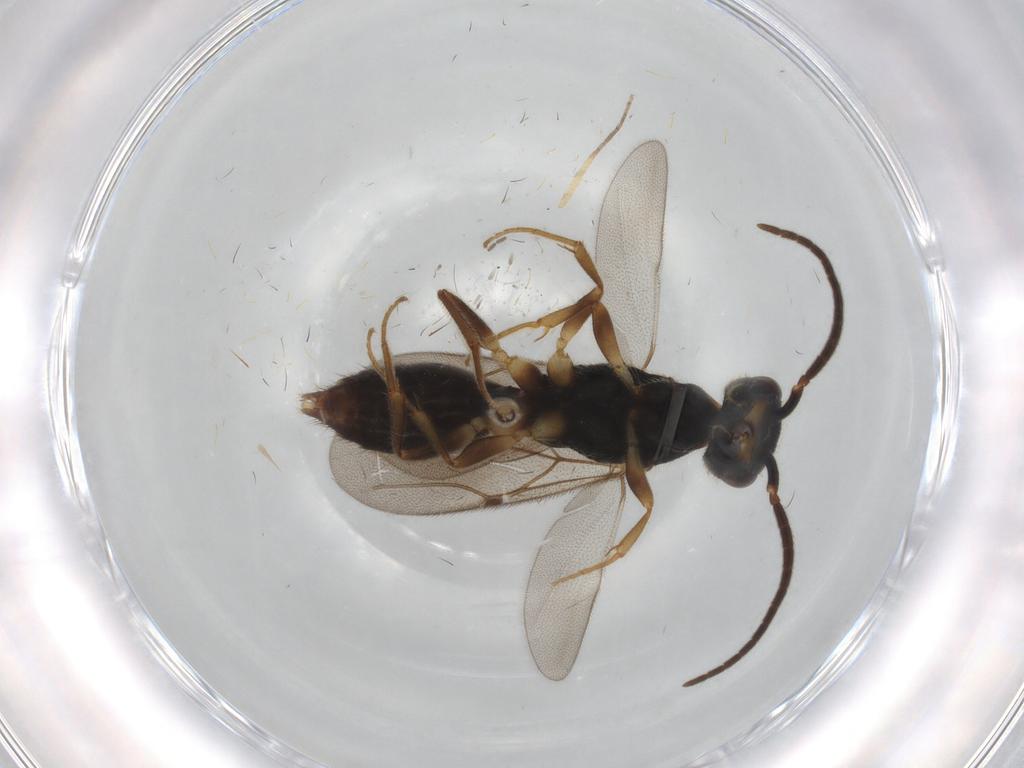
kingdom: Animalia
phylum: Arthropoda
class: Insecta
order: Hymenoptera
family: Bethylidae
